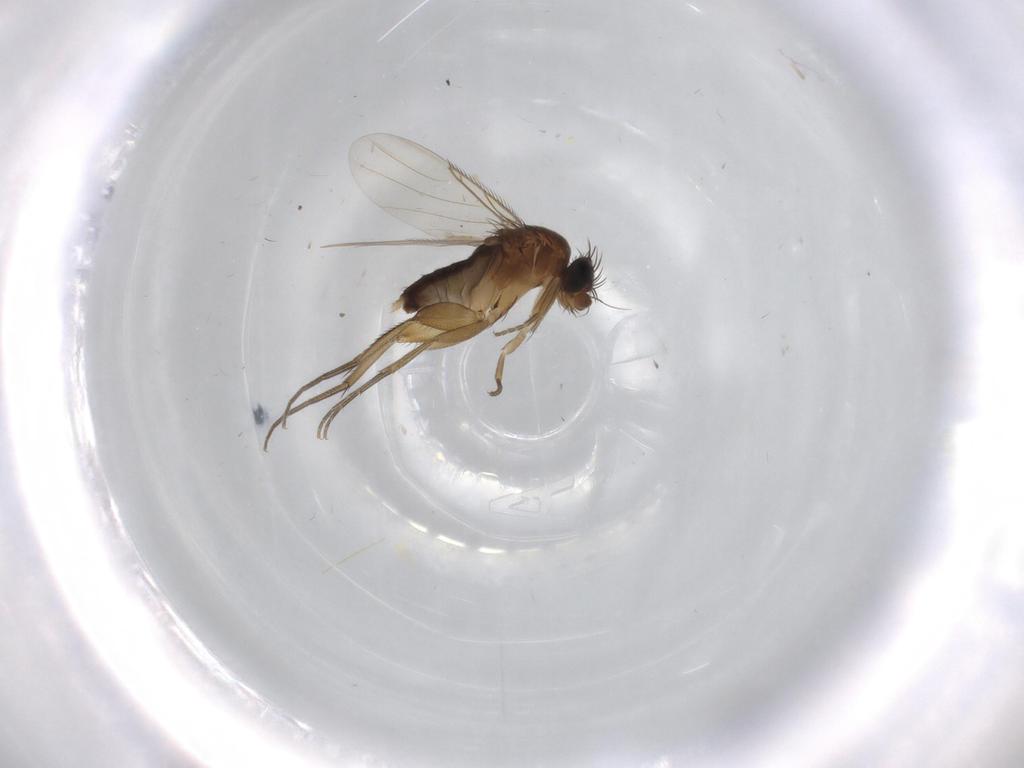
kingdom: Animalia
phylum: Arthropoda
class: Insecta
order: Diptera
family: Phoridae
